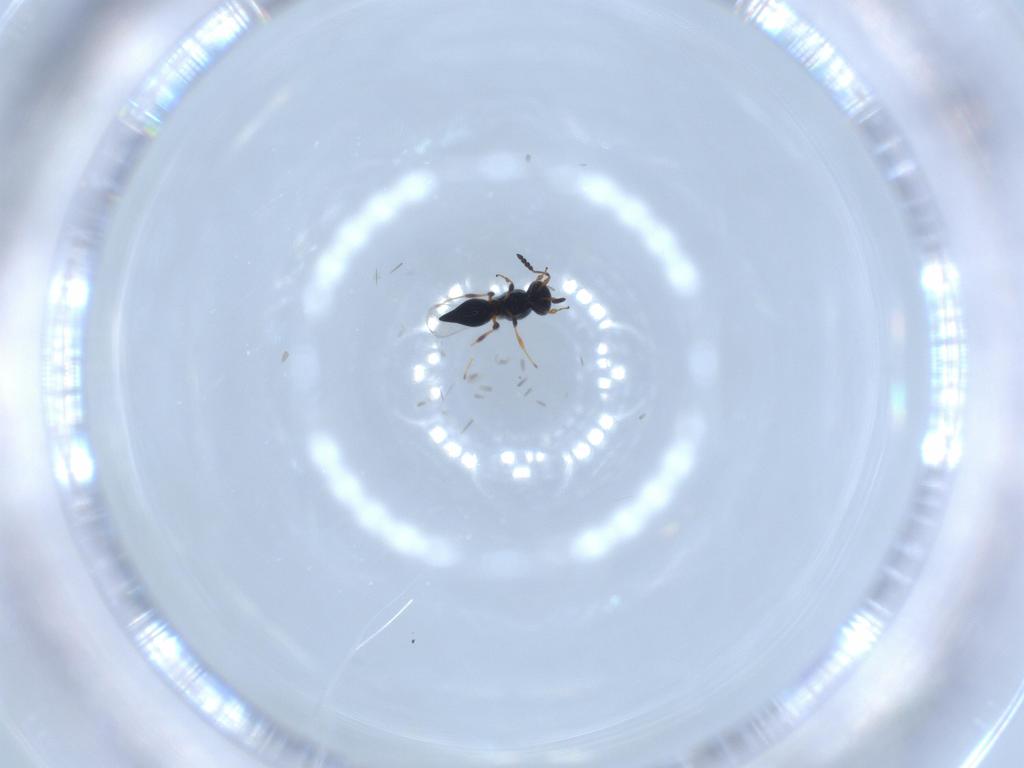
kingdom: Animalia
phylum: Arthropoda
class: Insecta
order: Hymenoptera
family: Platygastridae
